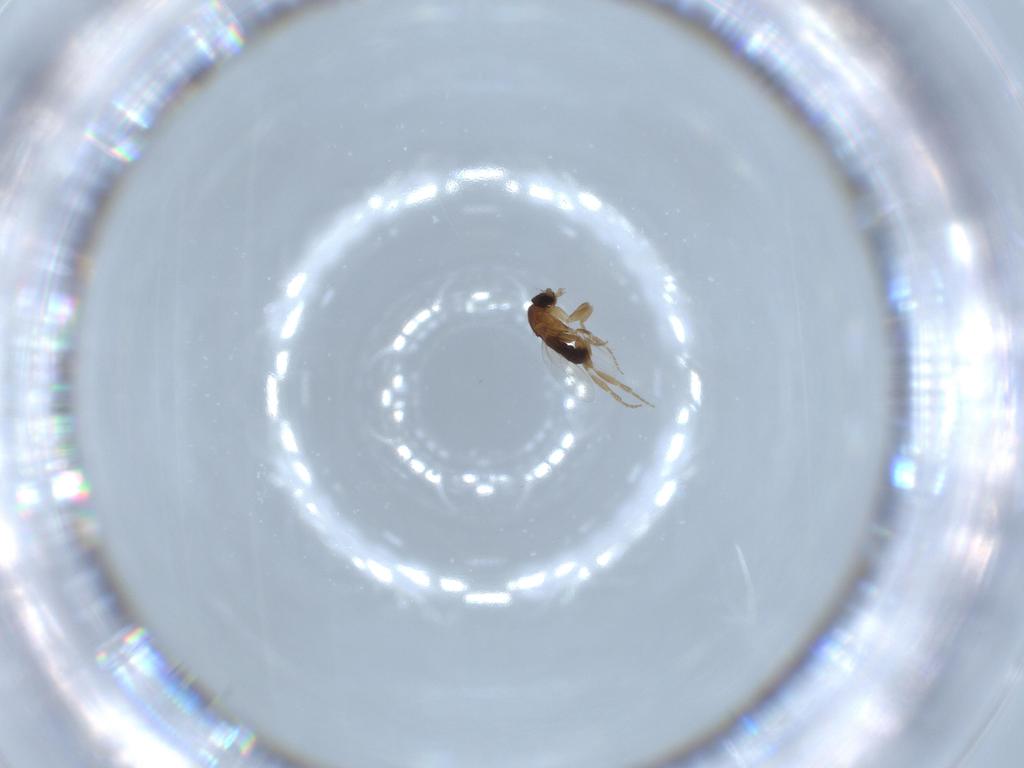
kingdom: Animalia
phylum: Arthropoda
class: Insecta
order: Diptera
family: Phoridae
